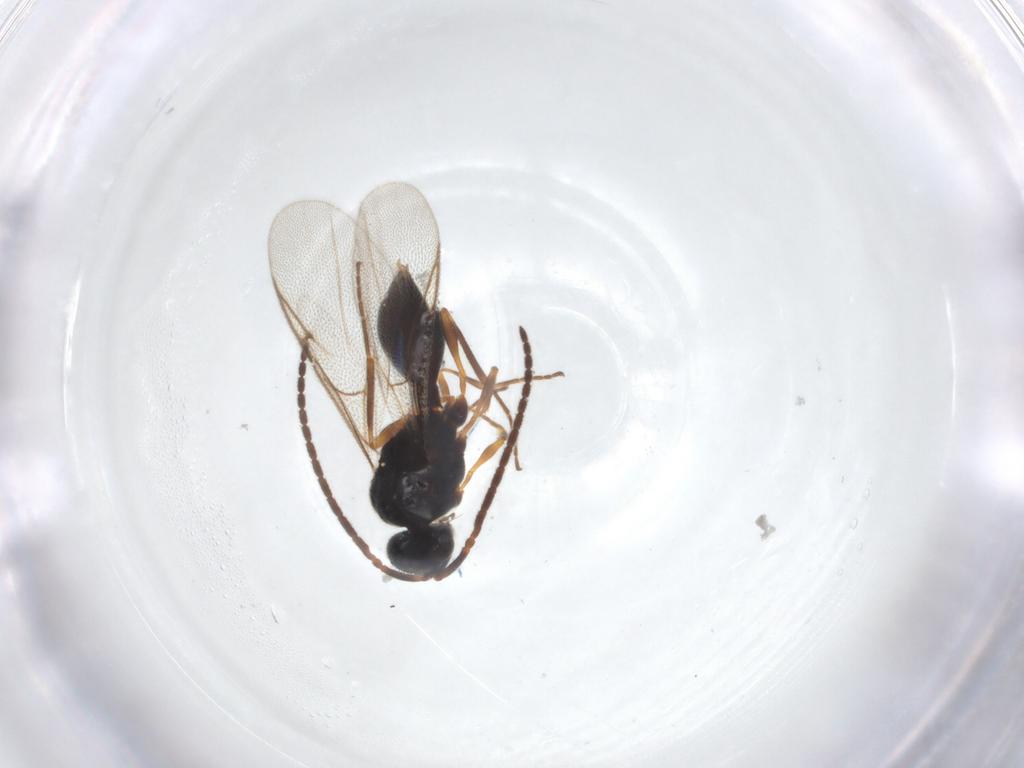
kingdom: Animalia
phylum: Arthropoda
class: Insecta
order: Hymenoptera
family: Diapriidae
